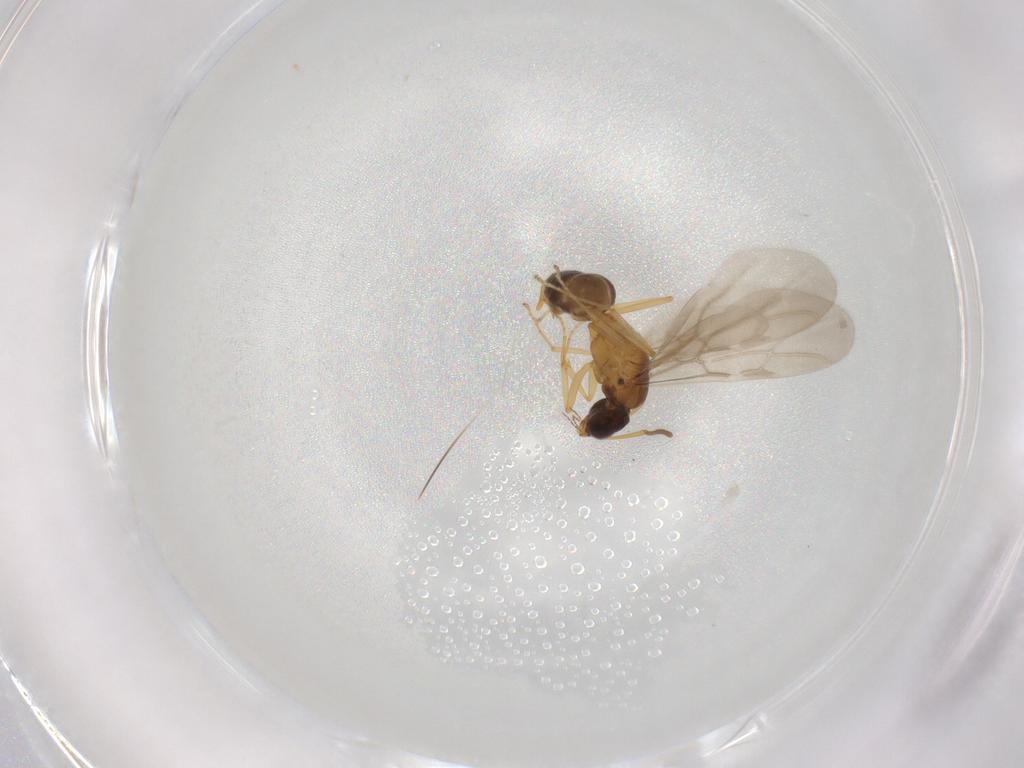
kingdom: Animalia
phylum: Arthropoda
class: Insecta
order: Hymenoptera
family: Formicidae
